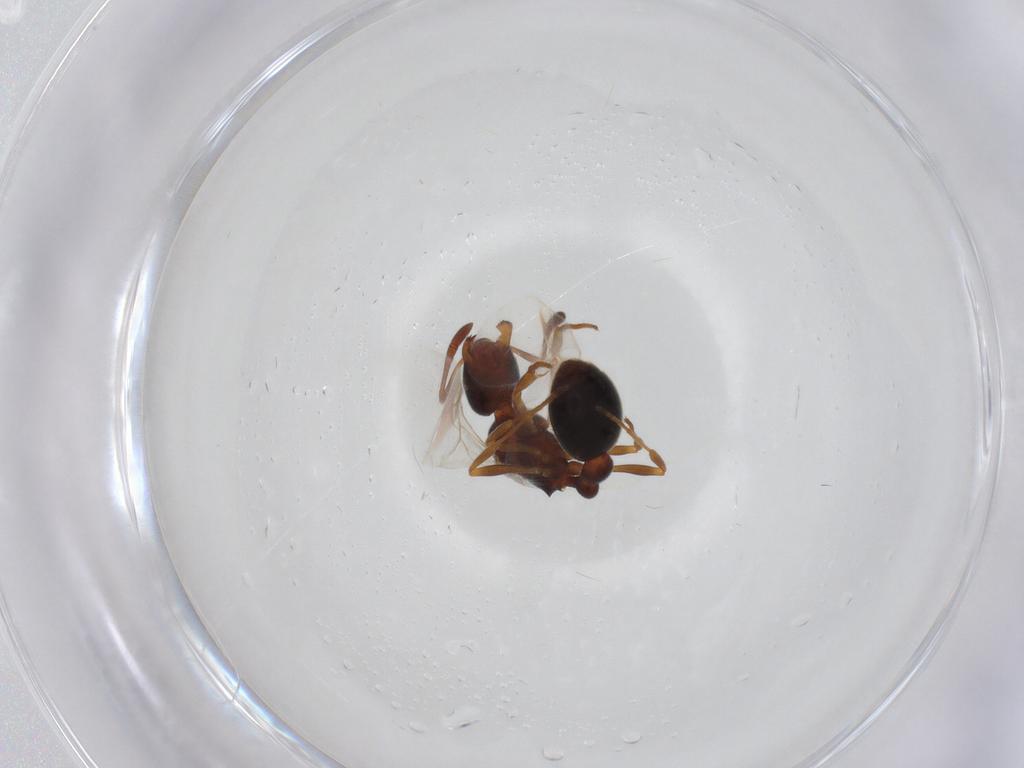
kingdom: Animalia
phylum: Arthropoda
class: Insecta
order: Hymenoptera
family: Formicidae
